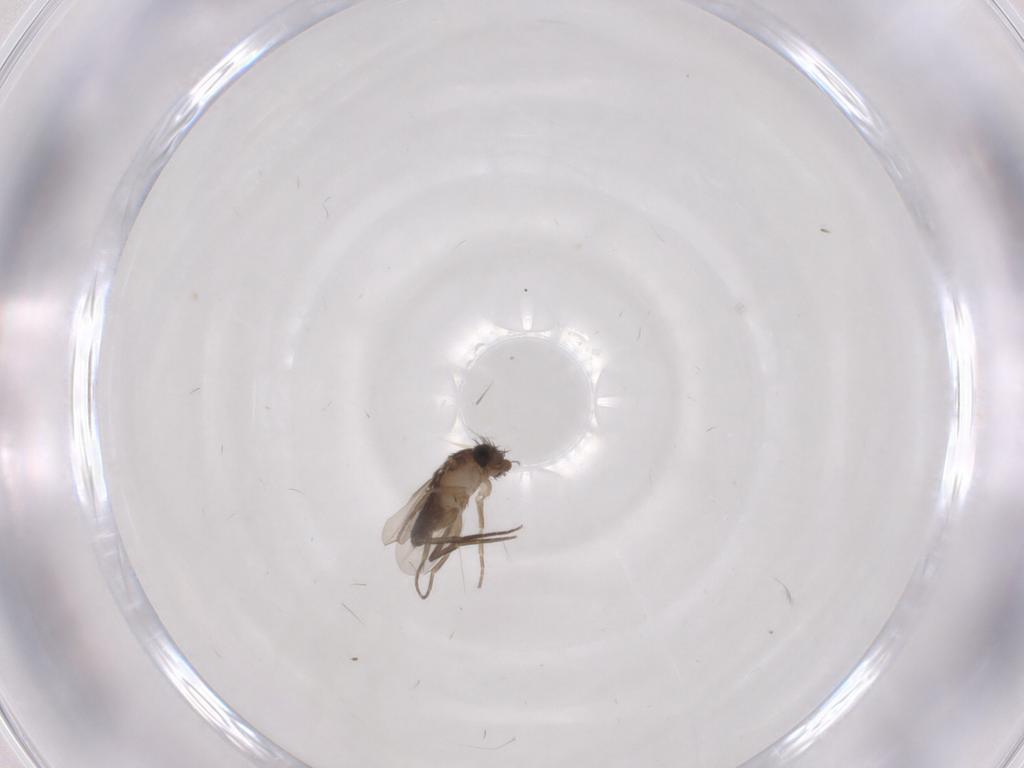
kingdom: Animalia
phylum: Arthropoda
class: Insecta
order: Diptera
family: Phoridae
